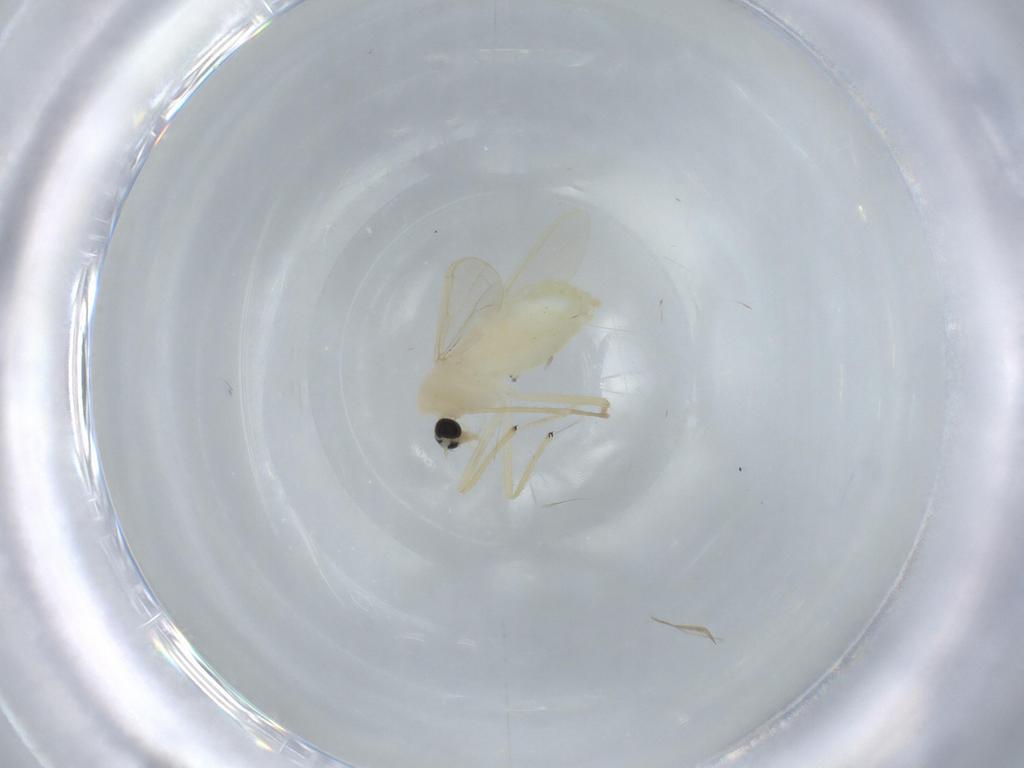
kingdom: Animalia
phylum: Arthropoda
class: Insecta
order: Diptera
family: Chironomidae
